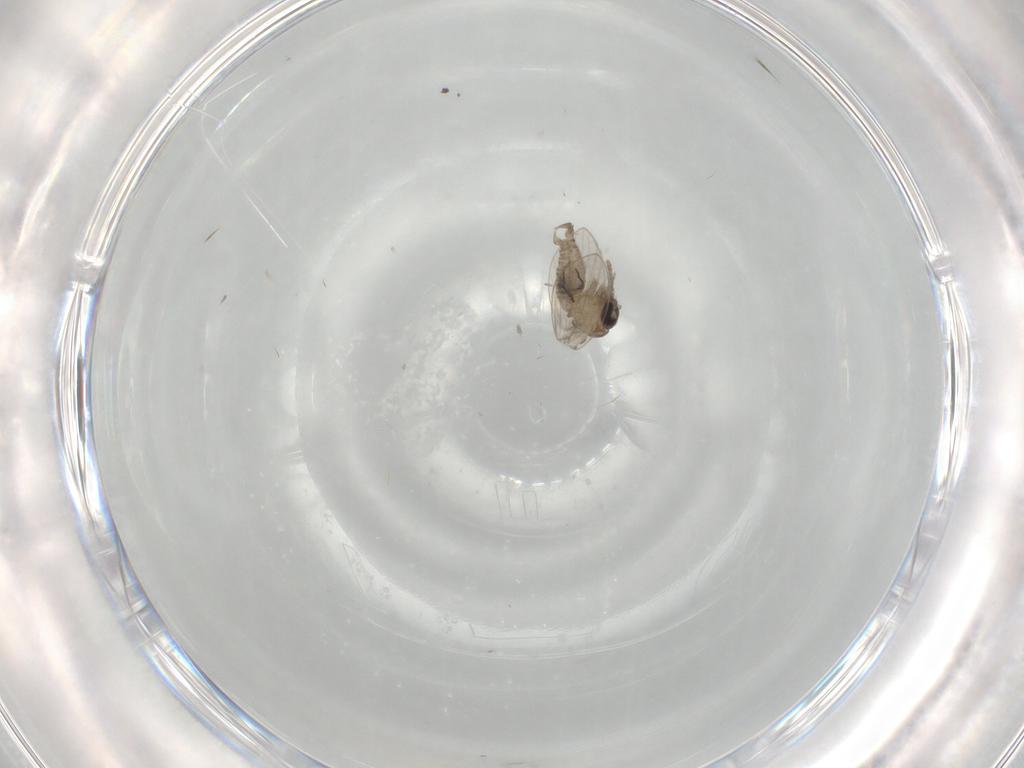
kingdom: Animalia
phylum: Arthropoda
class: Insecta
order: Diptera
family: Psychodidae
